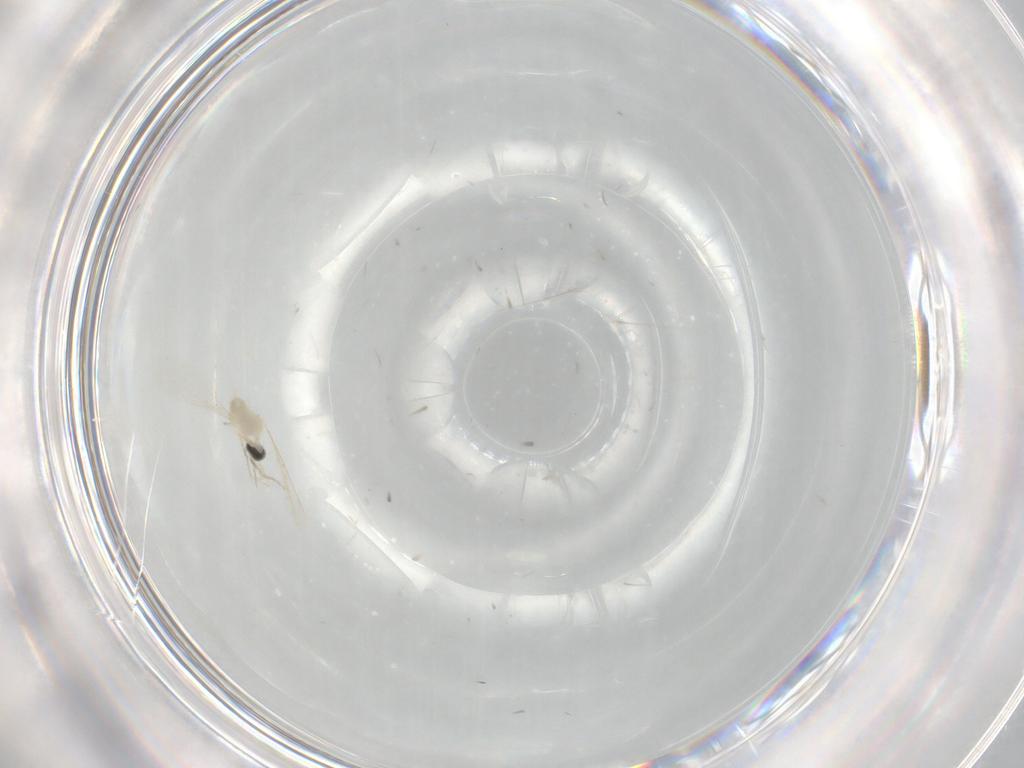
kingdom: Animalia
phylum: Arthropoda
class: Insecta
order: Diptera
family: Cecidomyiidae
